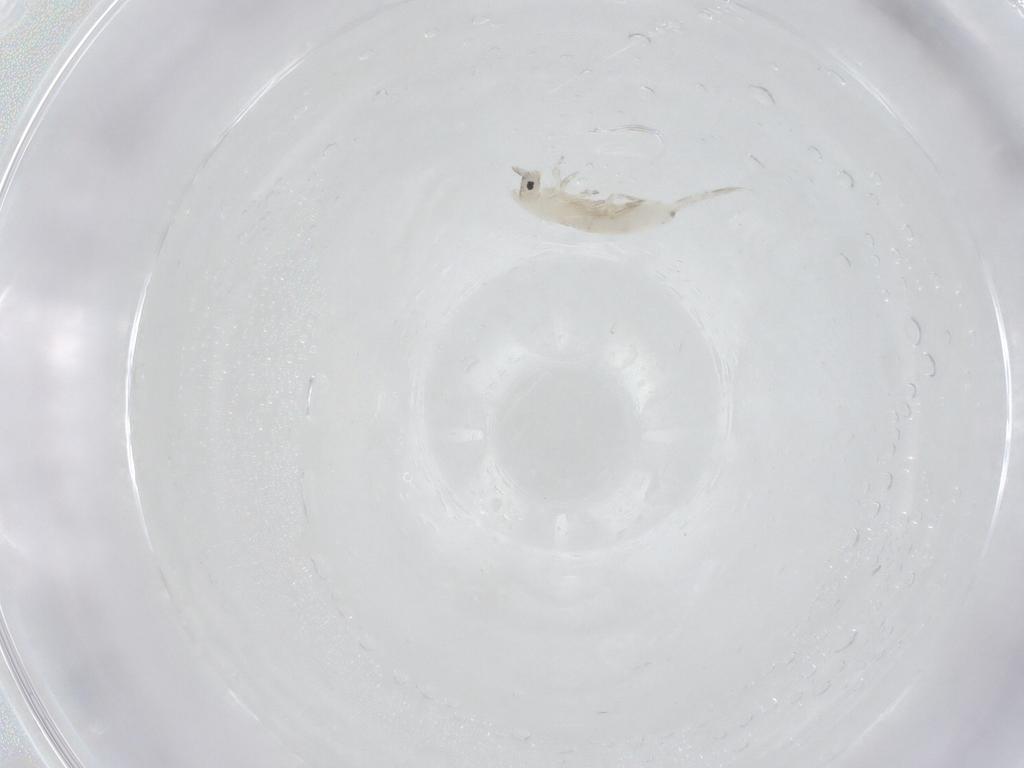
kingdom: Animalia
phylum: Arthropoda
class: Collembola
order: Entomobryomorpha
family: Entomobryidae
